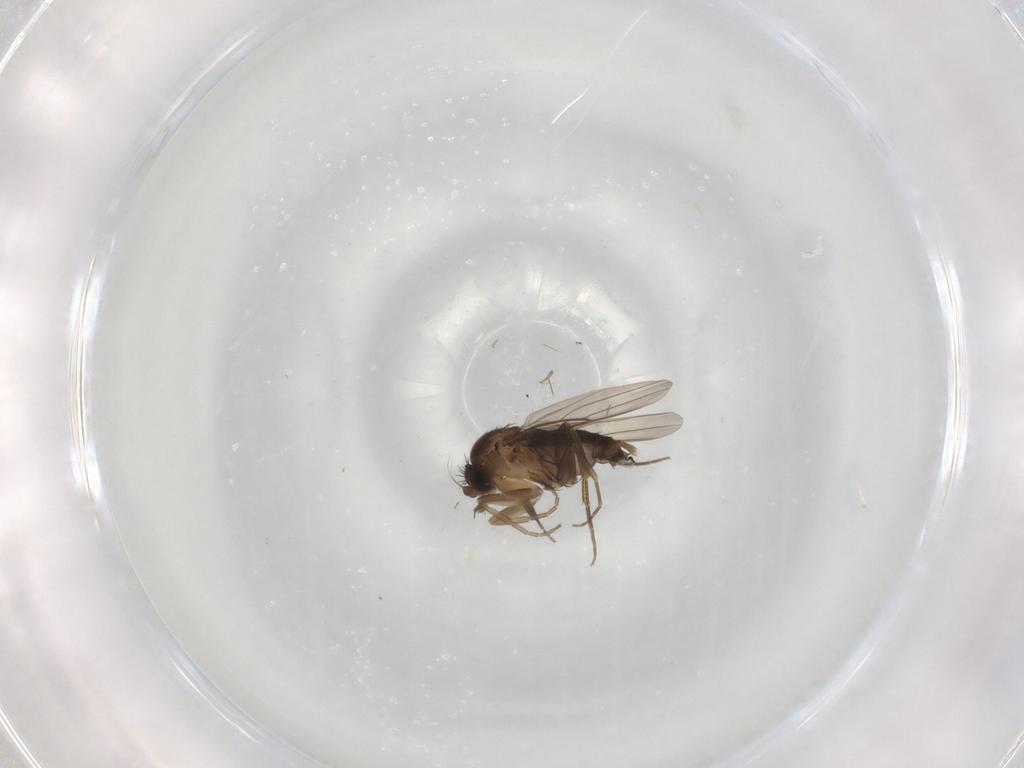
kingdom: Animalia
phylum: Arthropoda
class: Insecta
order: Diptera
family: Phoridae
